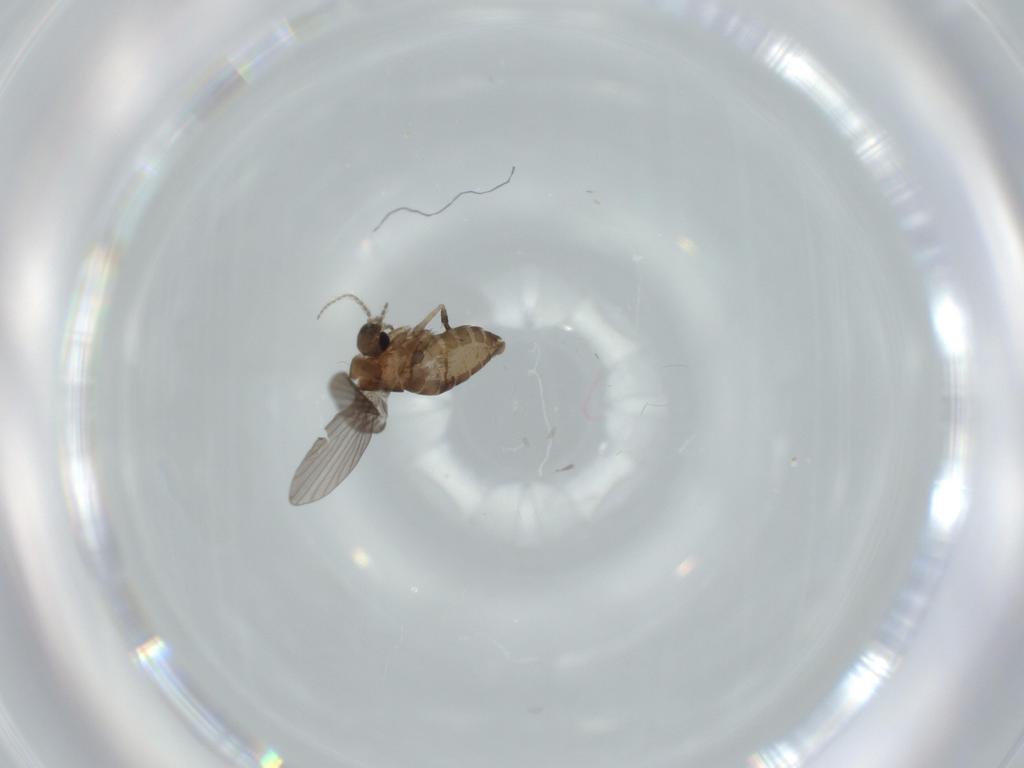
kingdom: Animalia
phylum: Arthropoda
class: Insecta
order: Diptera
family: Psychodidae
